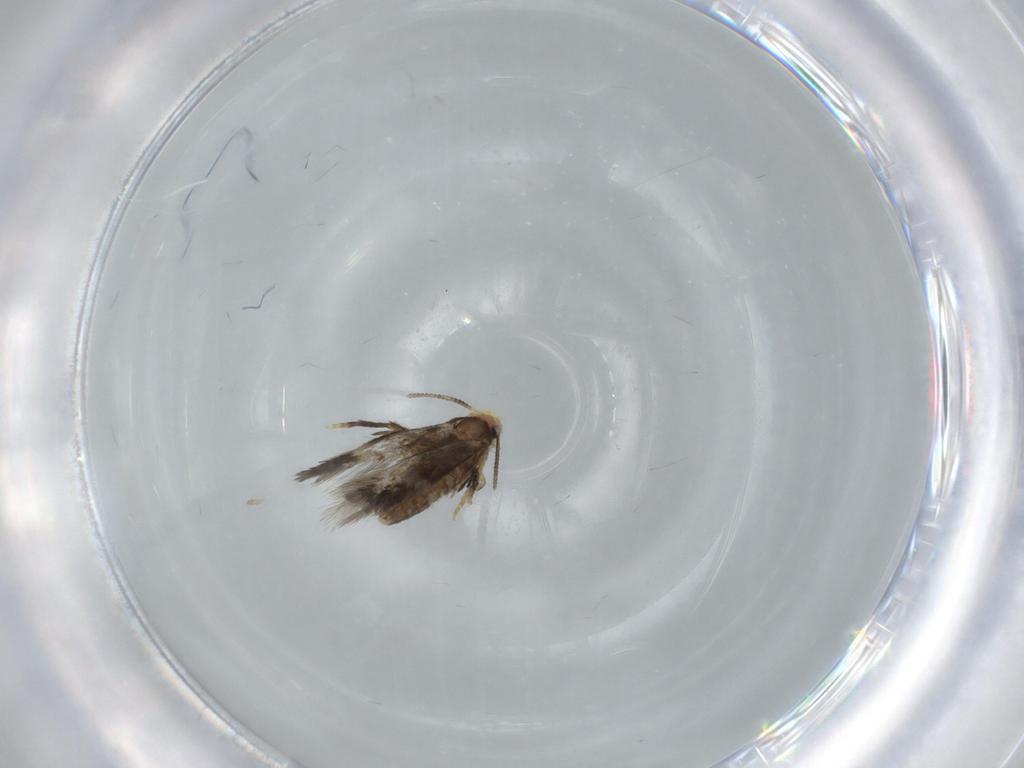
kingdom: Animalia
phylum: Arthropoda
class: Insecta
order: Lepidoptera
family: Nepticulidae
